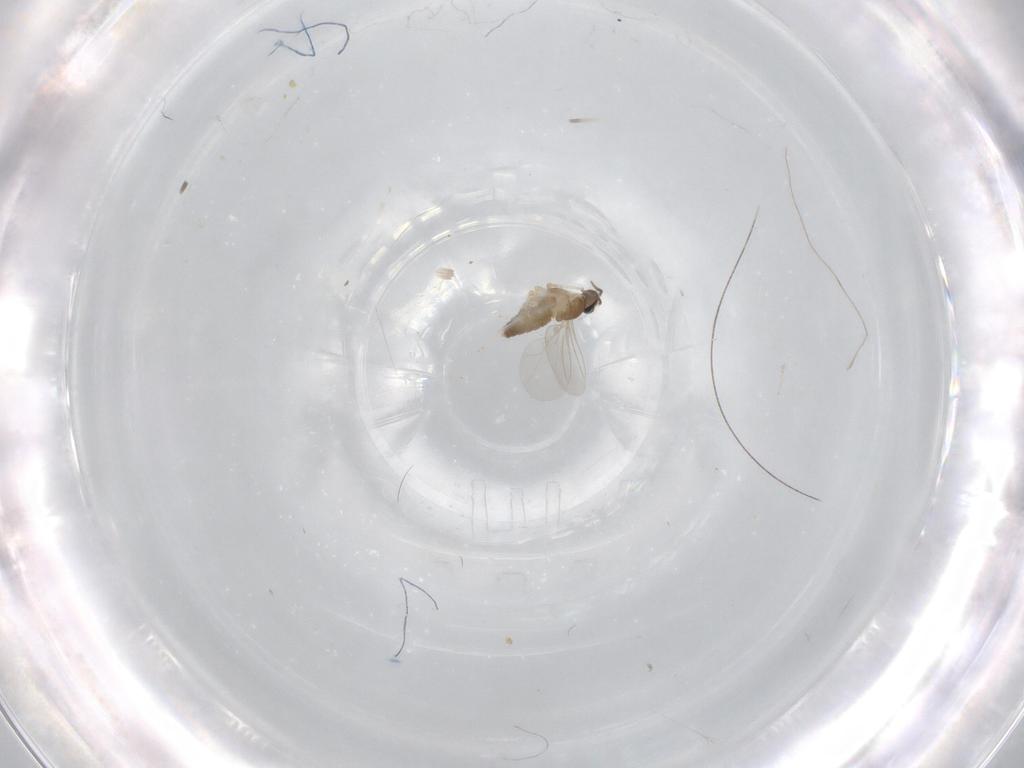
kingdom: Animalia
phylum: Arthropoda
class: Insecta
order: Diptera
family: Cecidomyiidae
